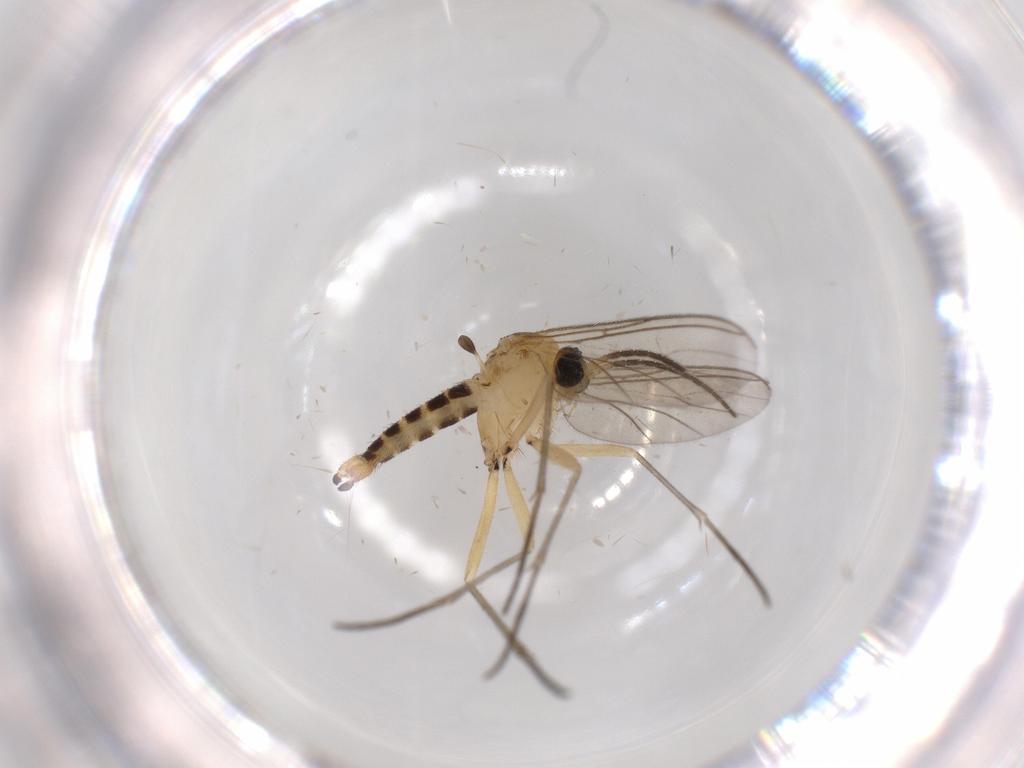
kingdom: Animalia
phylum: Arthropoda
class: Insecta
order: Diptera
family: Sciaridae
